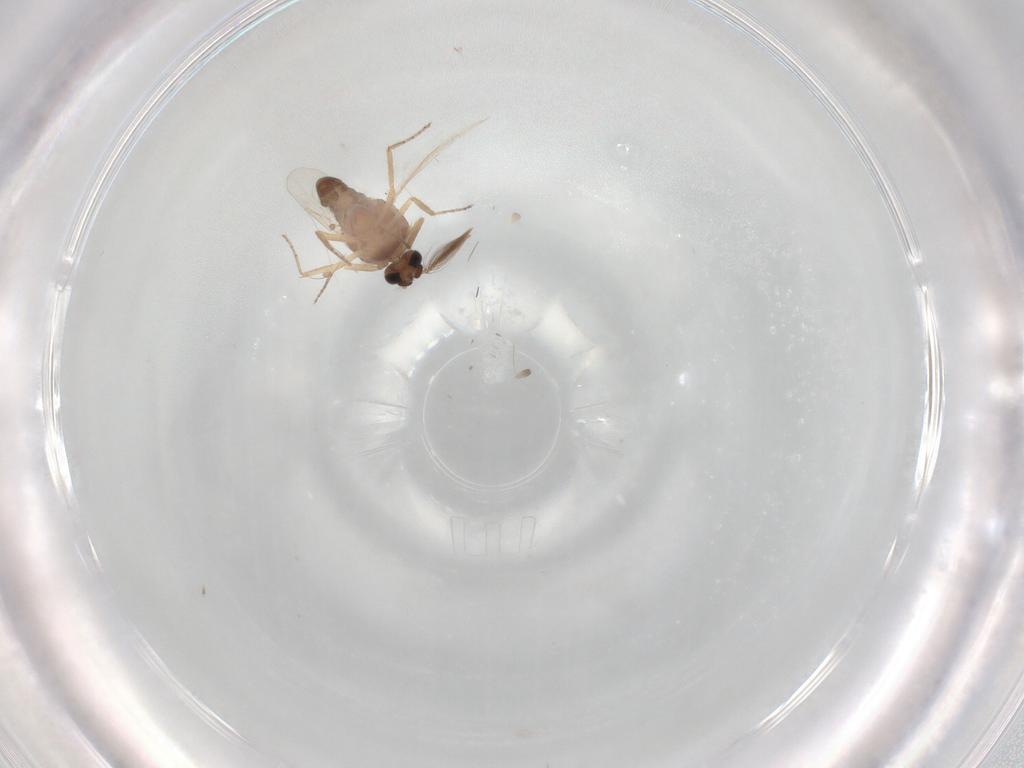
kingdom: Animalia
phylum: Arthropoda
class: Insecta
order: Diptera
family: Ceratopogonidae
